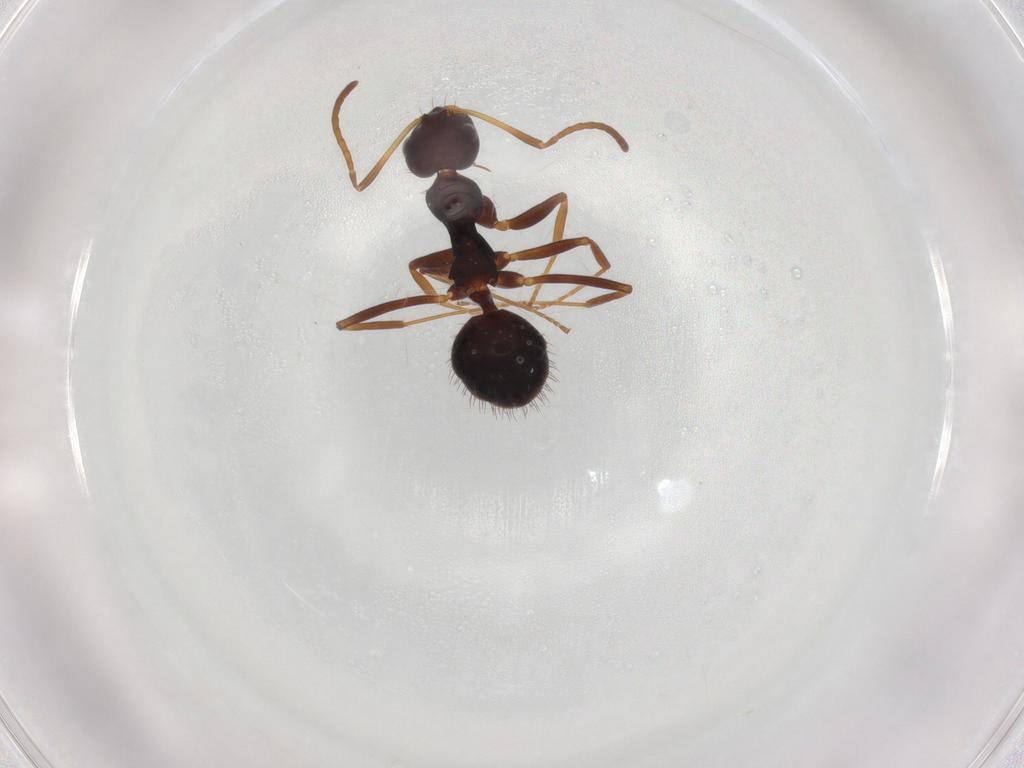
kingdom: Animalia
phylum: Arthropoda
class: Insecta
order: Hymenoptera
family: Formicidae
